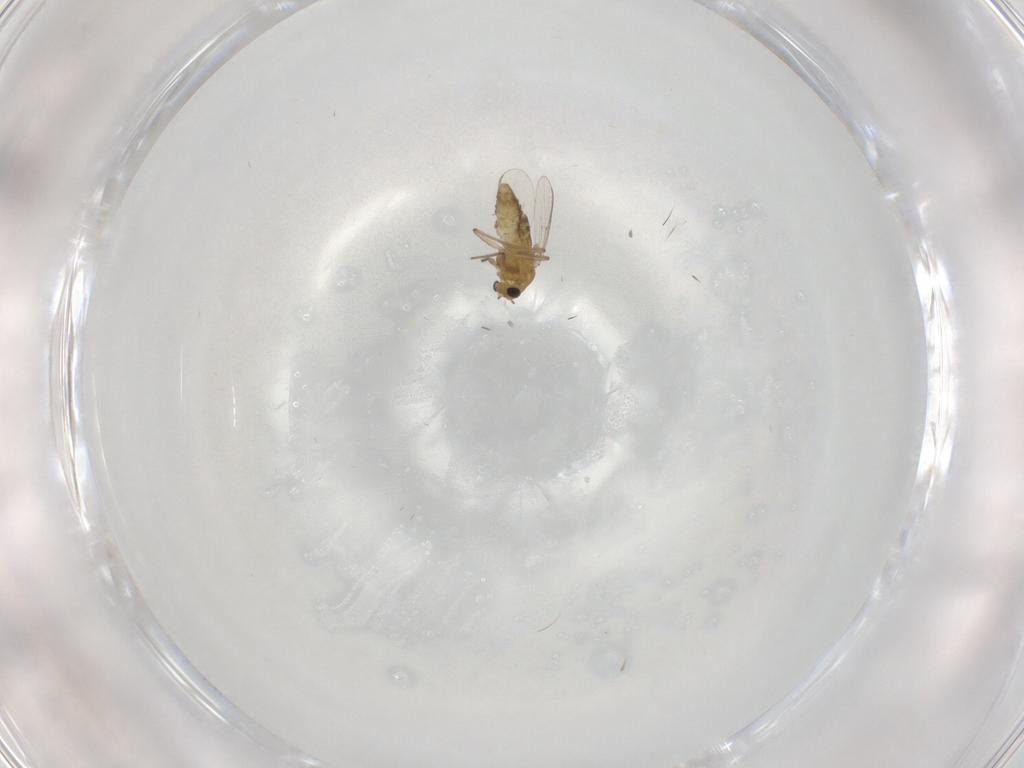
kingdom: Animalia
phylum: Arthropoda
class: Insecta
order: Diptera
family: Chironomidae
